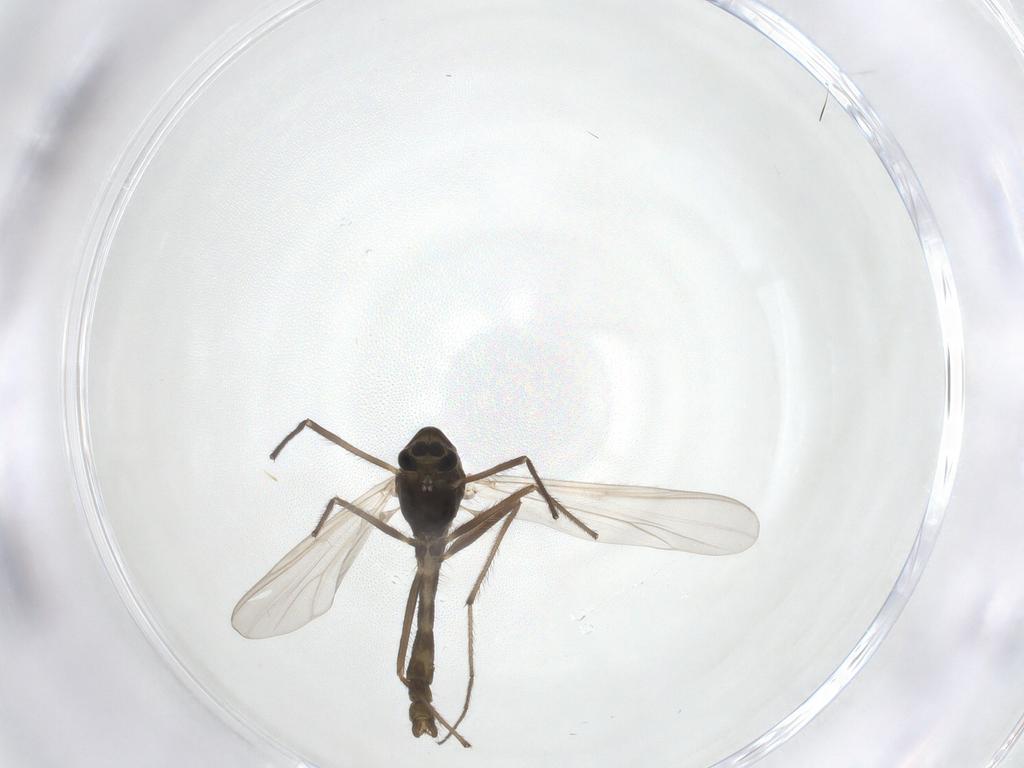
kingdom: Animalia
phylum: Arthropoda
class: Insecta
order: Diptera
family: Chironomidae
